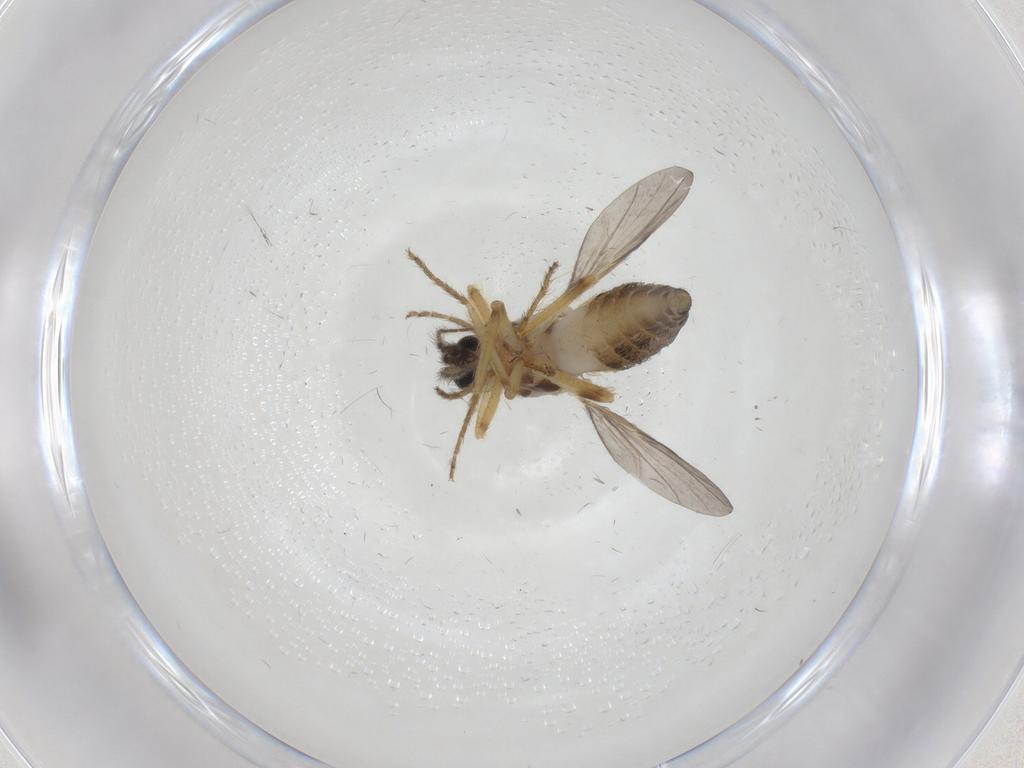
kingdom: Animalia
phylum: Arthropoda
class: Insecta
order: Diptera
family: Ceratopogonidae
